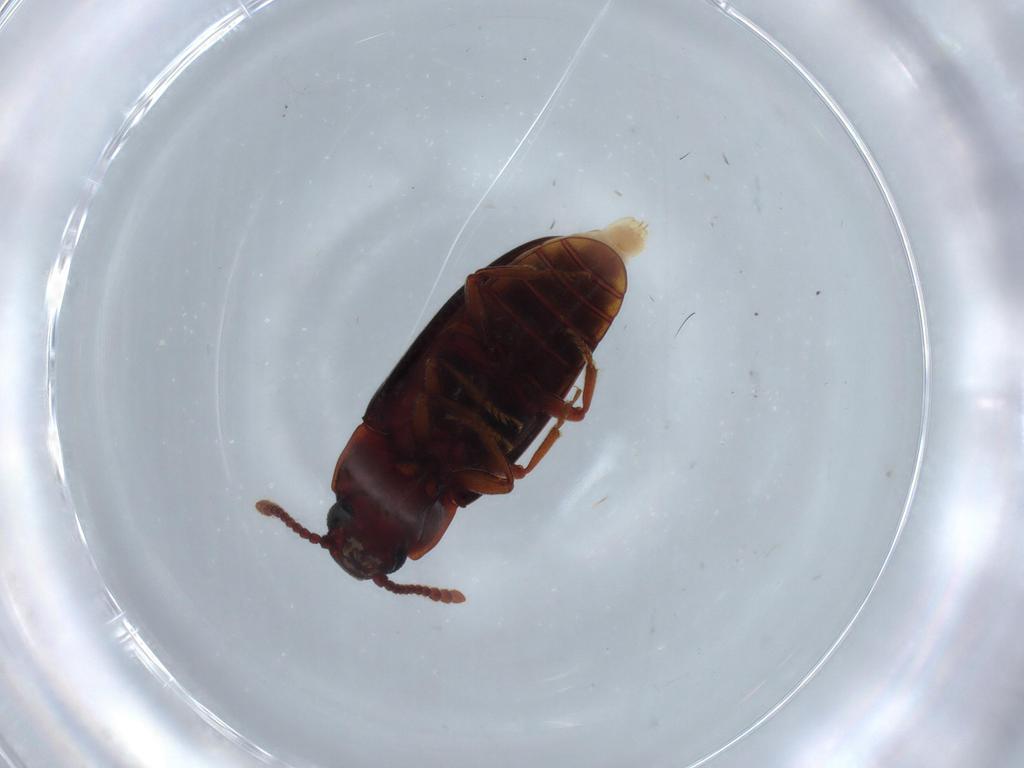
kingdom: Animalia
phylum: Arthropoda
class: Insecta
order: Coleoptera
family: Erotylidae
